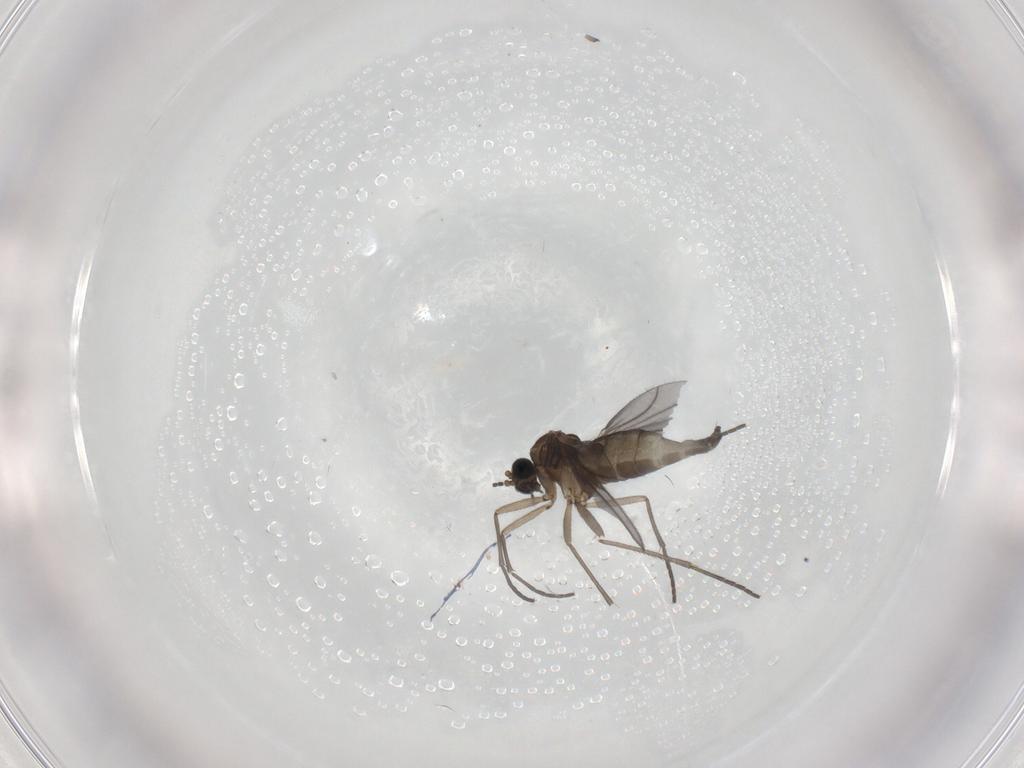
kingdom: Animalia
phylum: Arthropoda
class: Insecta
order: Diptera
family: Sciaridae
